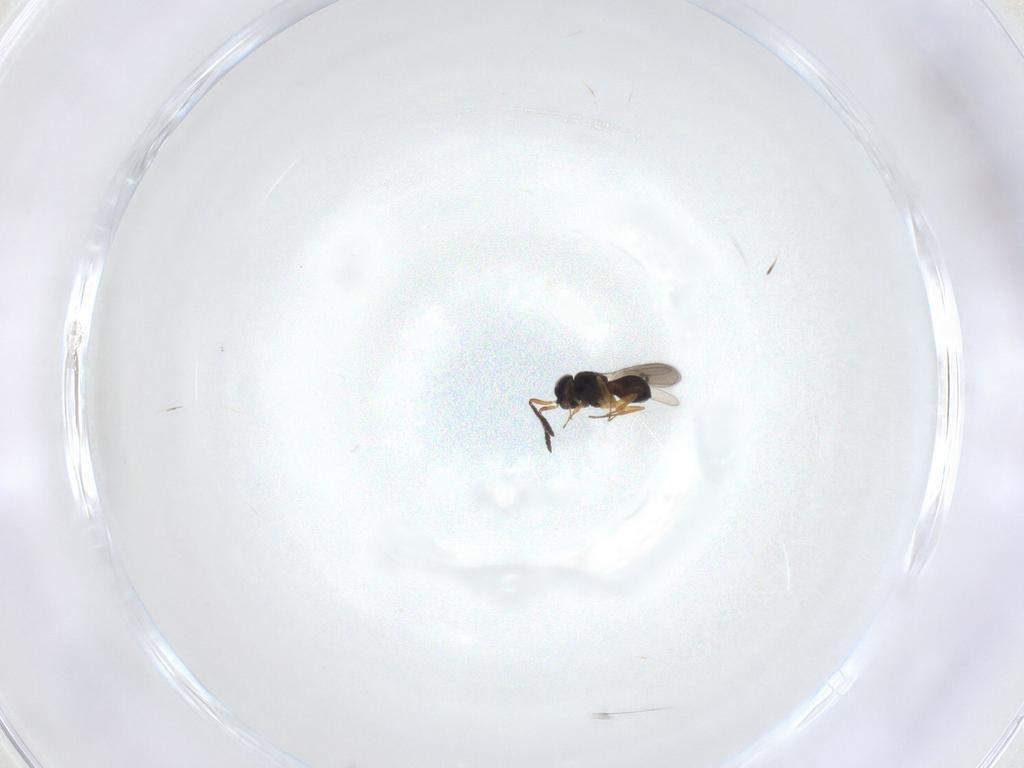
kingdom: Animalia
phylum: Arthropoda
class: Insecta
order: Hymenoptera
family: Scelionidae
